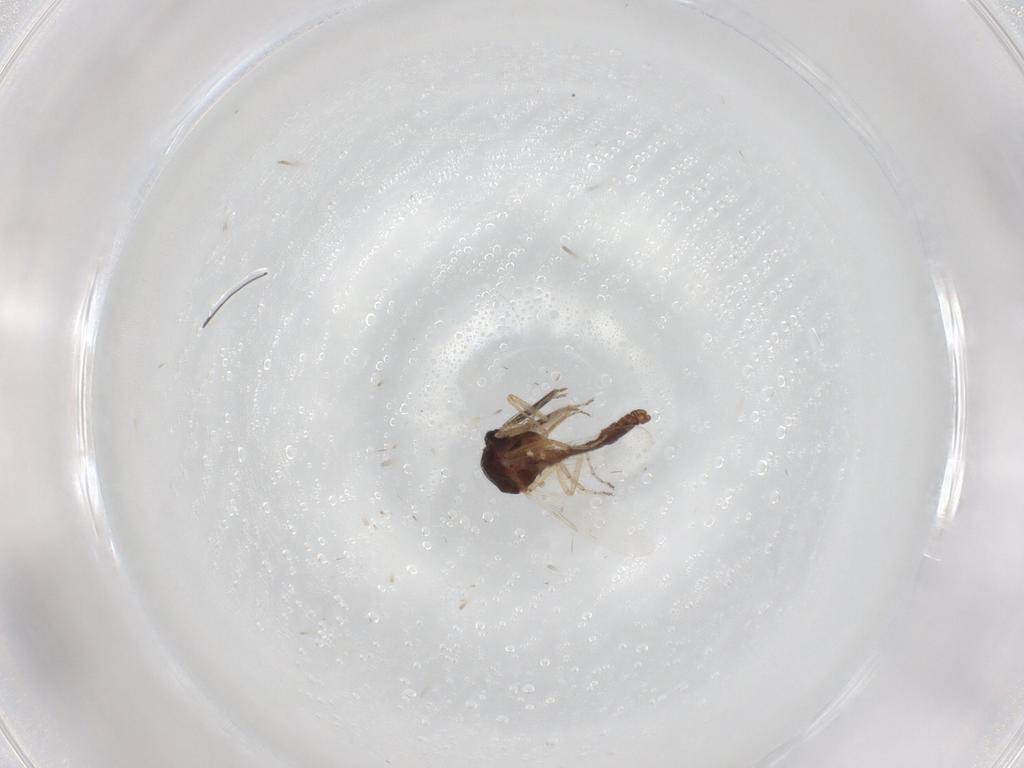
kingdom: Animalia
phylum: Arthropoda
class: Insecta
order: Diptera
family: Ceratopogonidae
